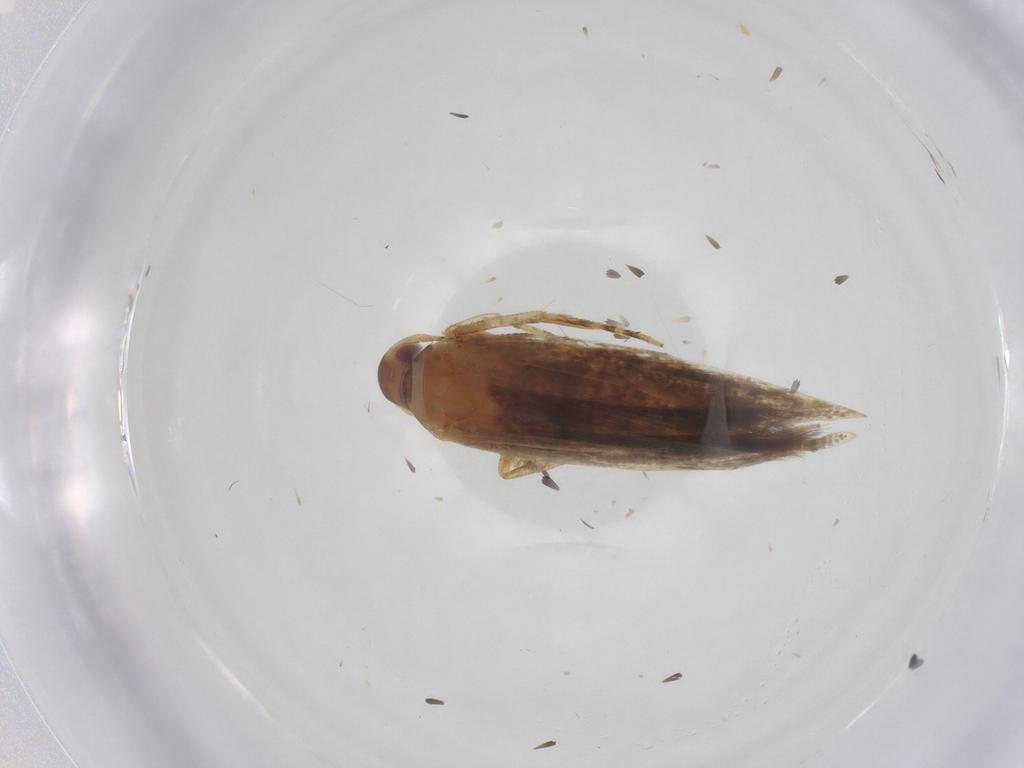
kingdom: Animalia
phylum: Arthropoda
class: Insecta
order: Lepidoptera
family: Cosmopterigidae
